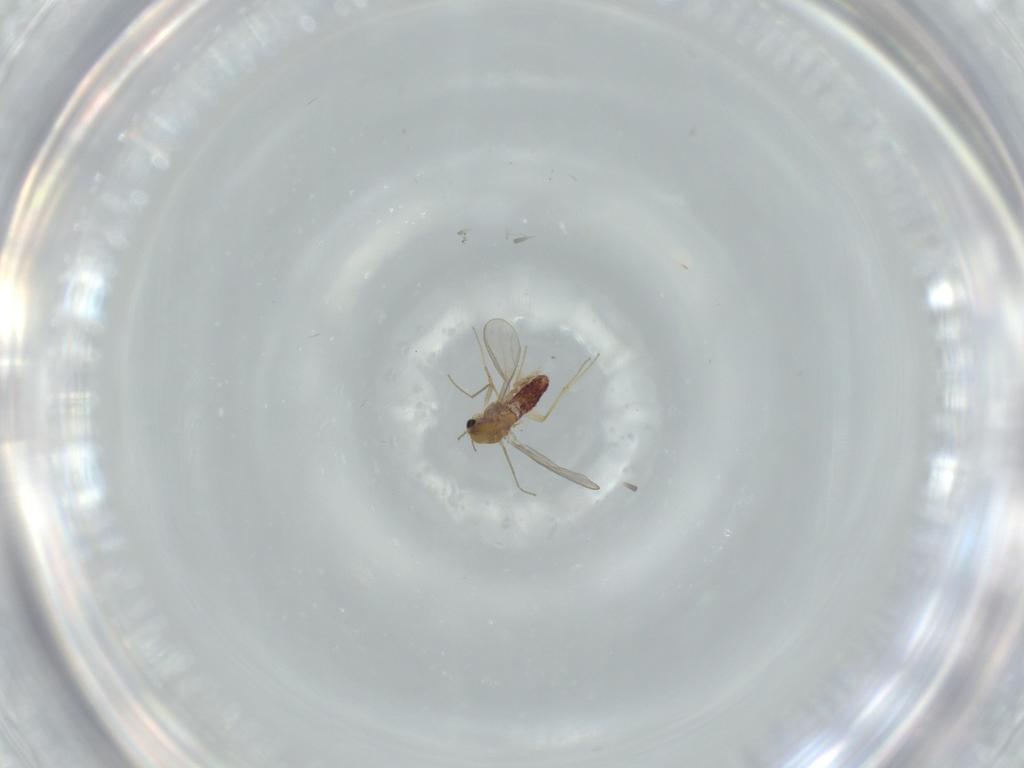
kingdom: Animalia
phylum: Arthropoda
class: Insecta
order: Diptera
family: Chironomidae
